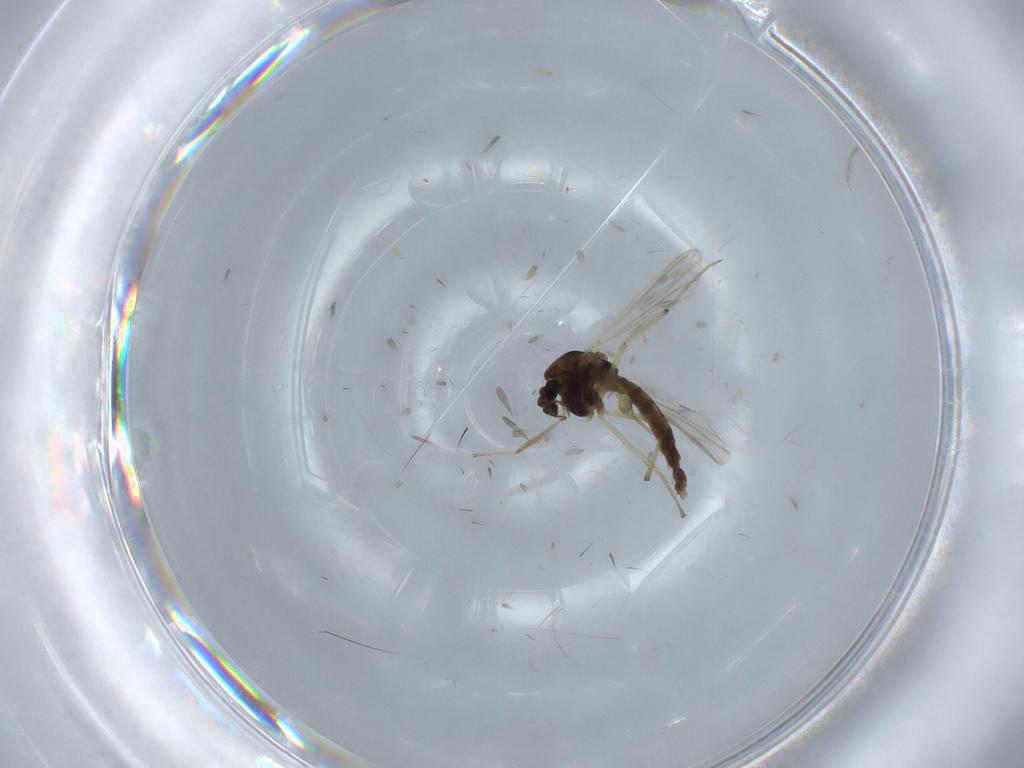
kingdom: Animalia
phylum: Arthropoda
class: Insecta
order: Diptera
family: Limoniidae
